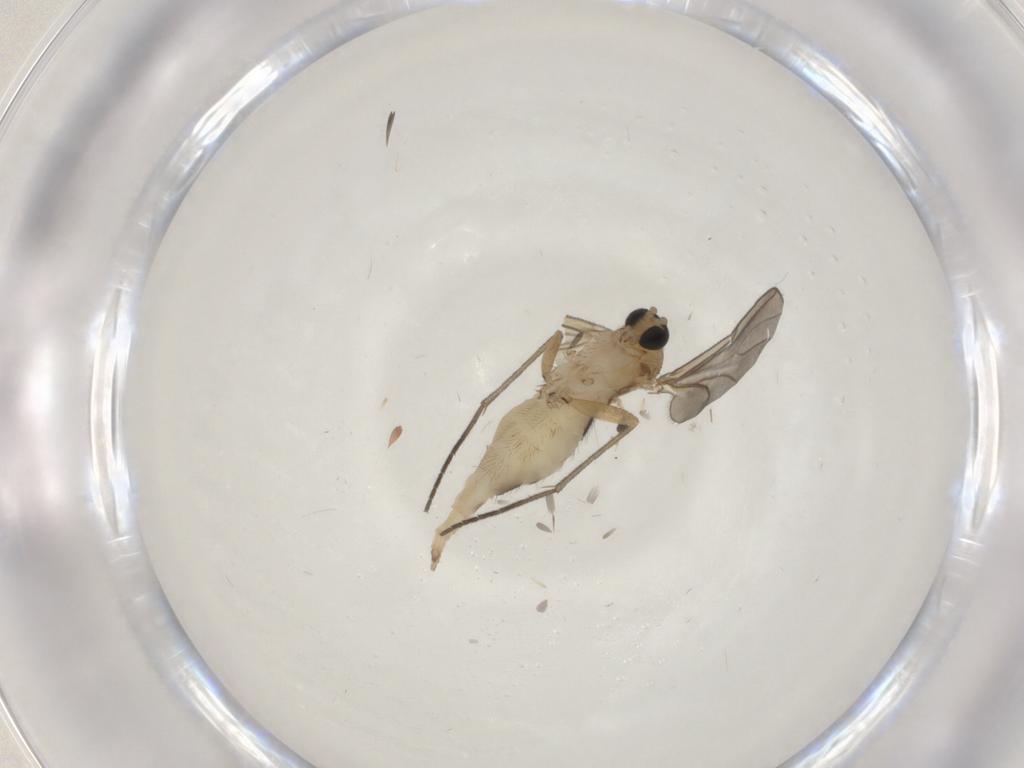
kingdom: Animalia
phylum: Arthropoda
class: Insecta
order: Diptera
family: Sciaridae
